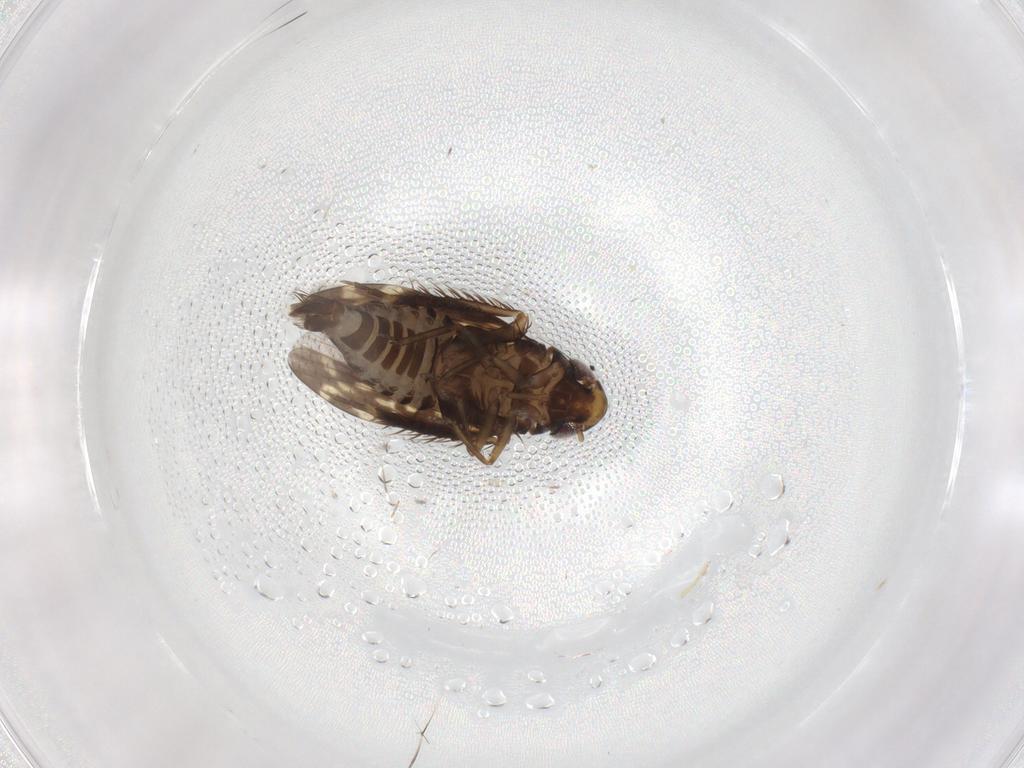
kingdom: Animalia
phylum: Arthropoda
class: Insecta
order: Hemiptera
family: Cicadellidae
